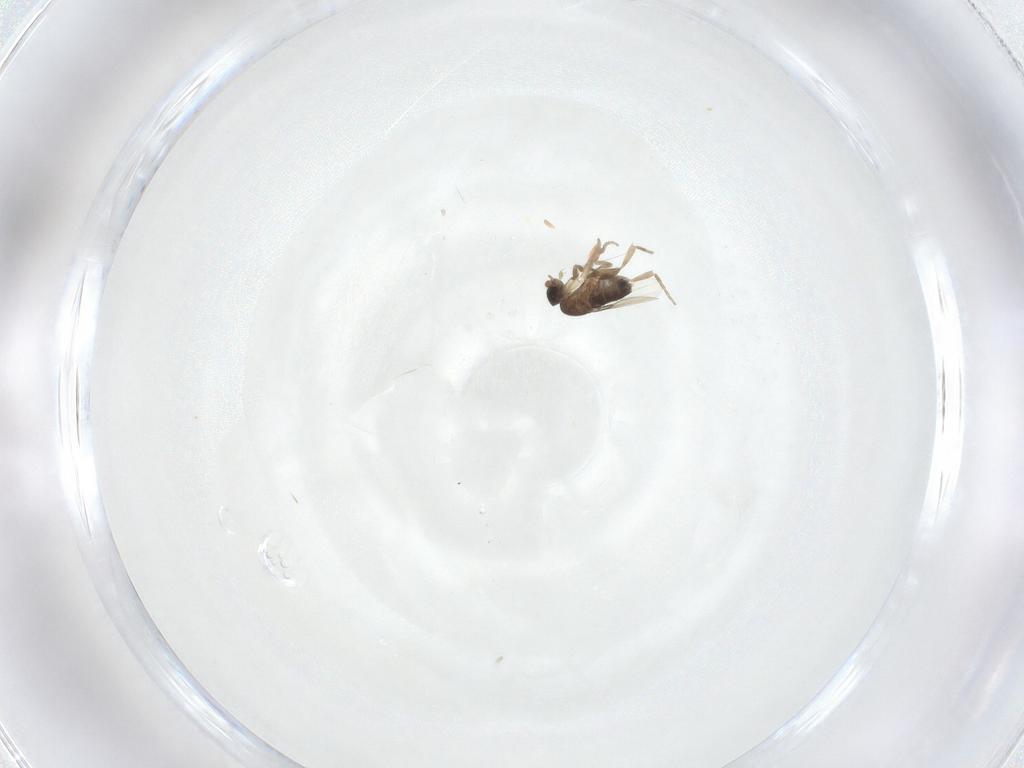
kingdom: Animalia
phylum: Arthropoda
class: Insecta
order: Diptera
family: Phoridae
